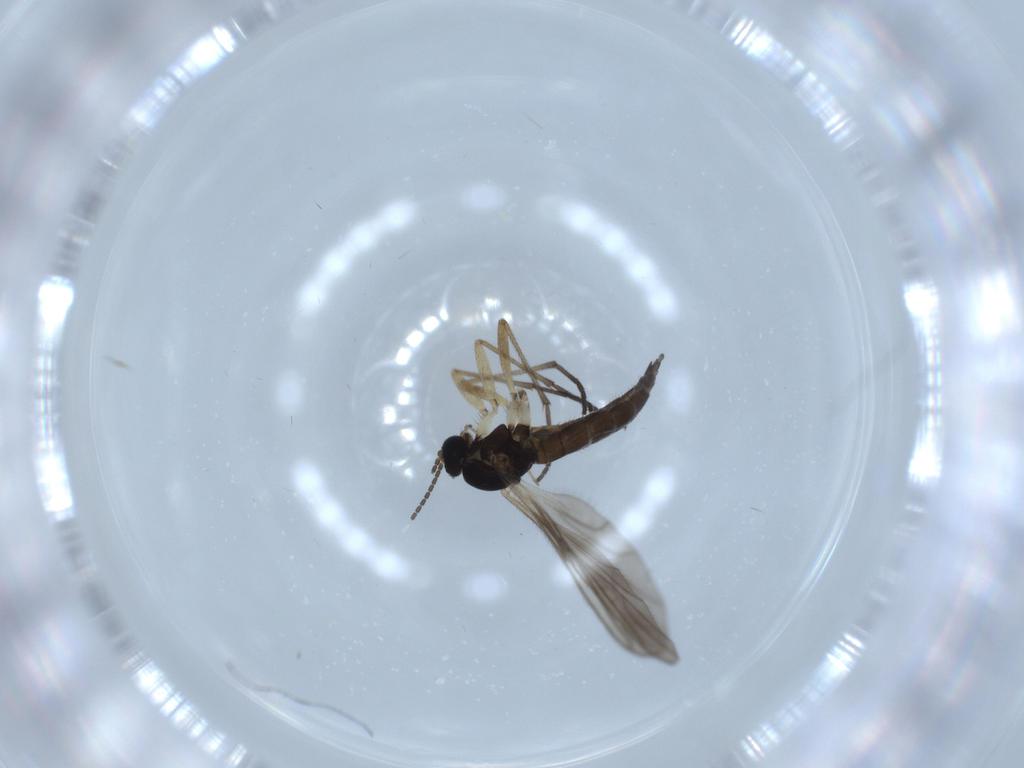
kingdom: Animalia
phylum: Arthropoda
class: Insecta
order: Diptera
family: Sciaridae
